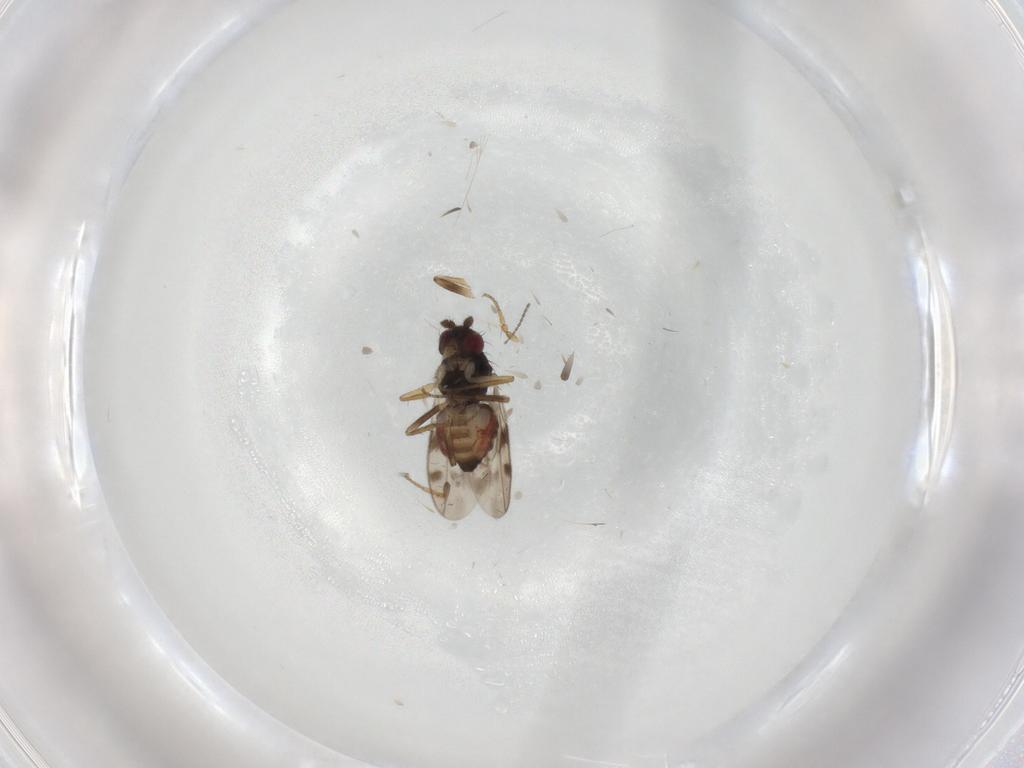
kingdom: Animalia
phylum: Arthropoda
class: Insecta
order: Diptera
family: Sphaeroceridae
